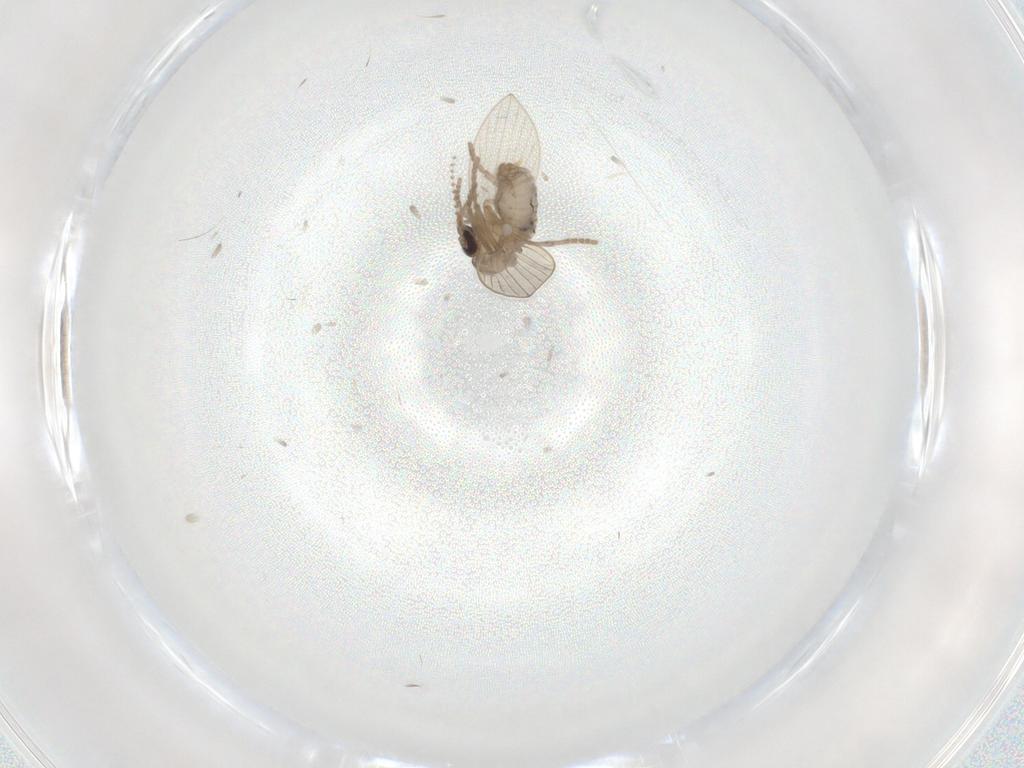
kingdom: Animalia
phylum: Arthropoda
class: Insecta
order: Diptera
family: Psychodidae
